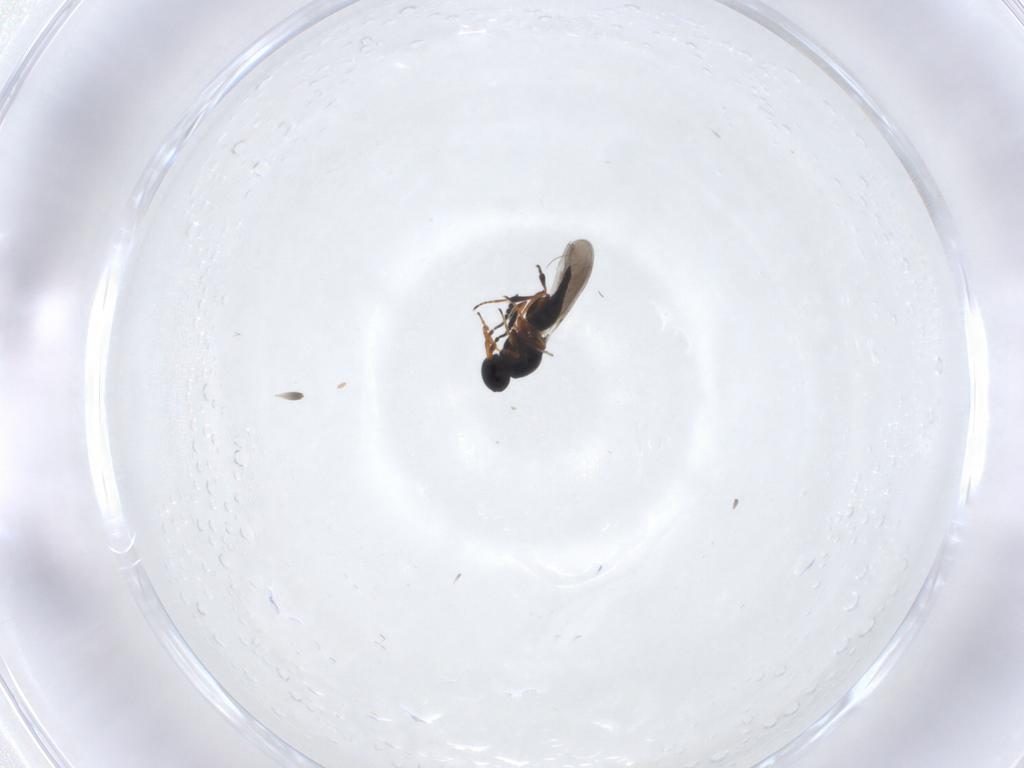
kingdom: Animalia
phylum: Arthropoda
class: Insecta
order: Hymenoptera
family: Platygastridae
